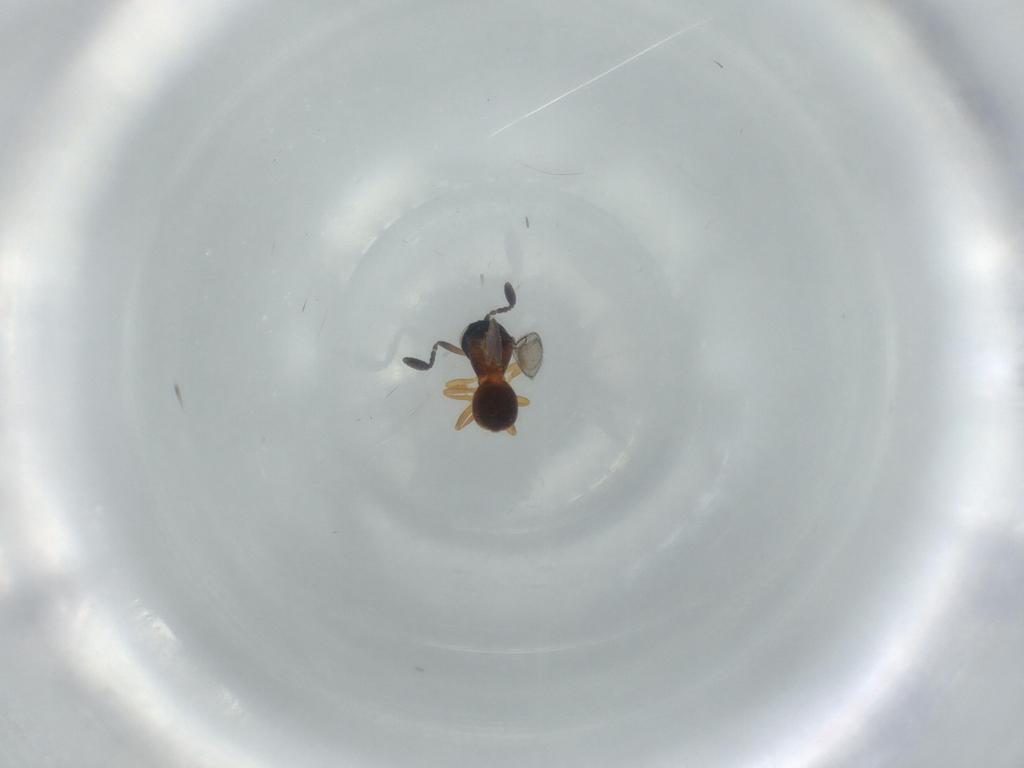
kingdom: Animalia
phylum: Arthropoda
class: Insecta
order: Hymenoptera
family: Scelionidae
